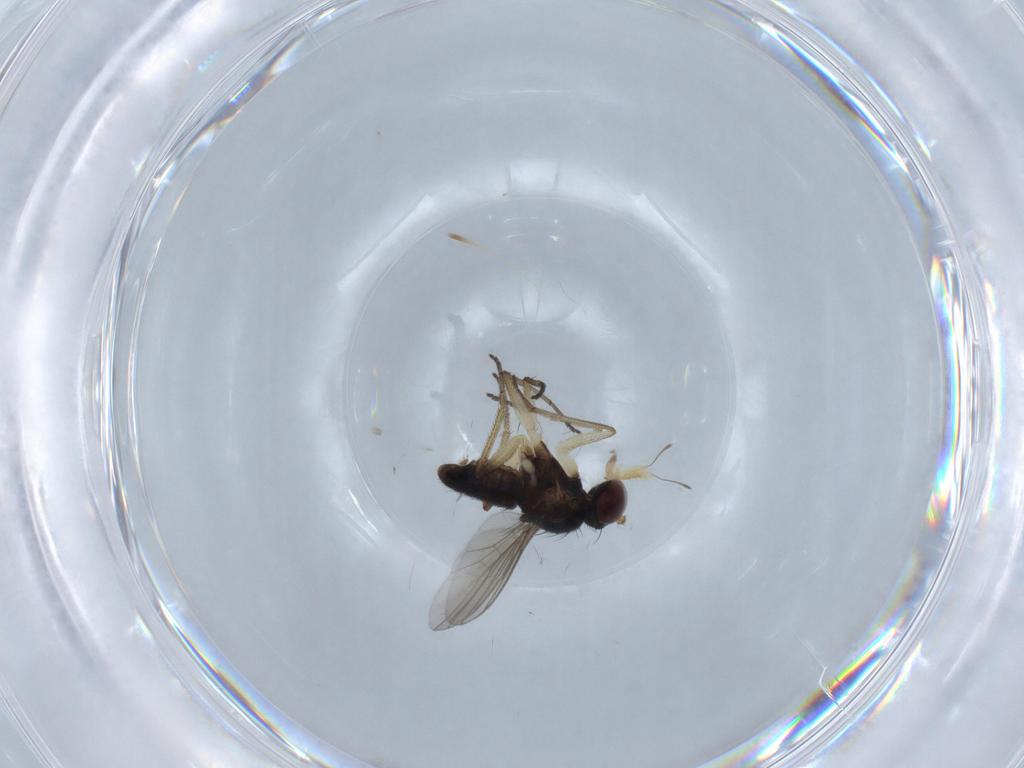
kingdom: Animalia
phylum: Arthropoda
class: Insecta
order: Diptera
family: Dolichopodidae
